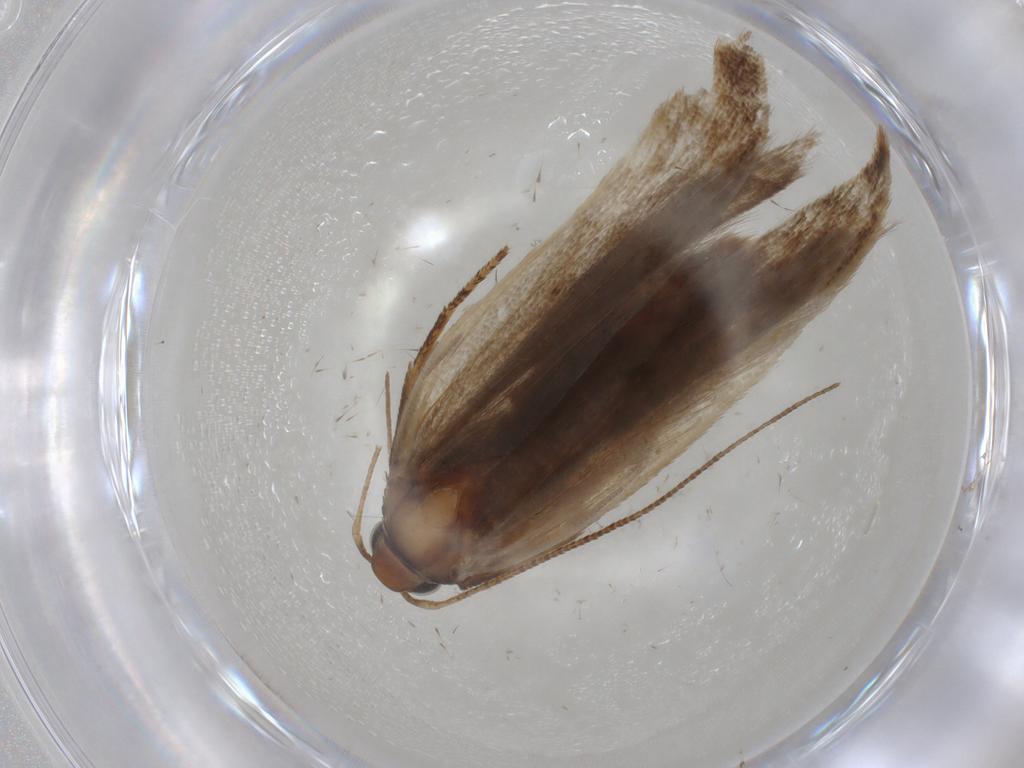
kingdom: Animalia
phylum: Arthropoda
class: Insecta
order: Lepidoptera
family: Gelechiidae
